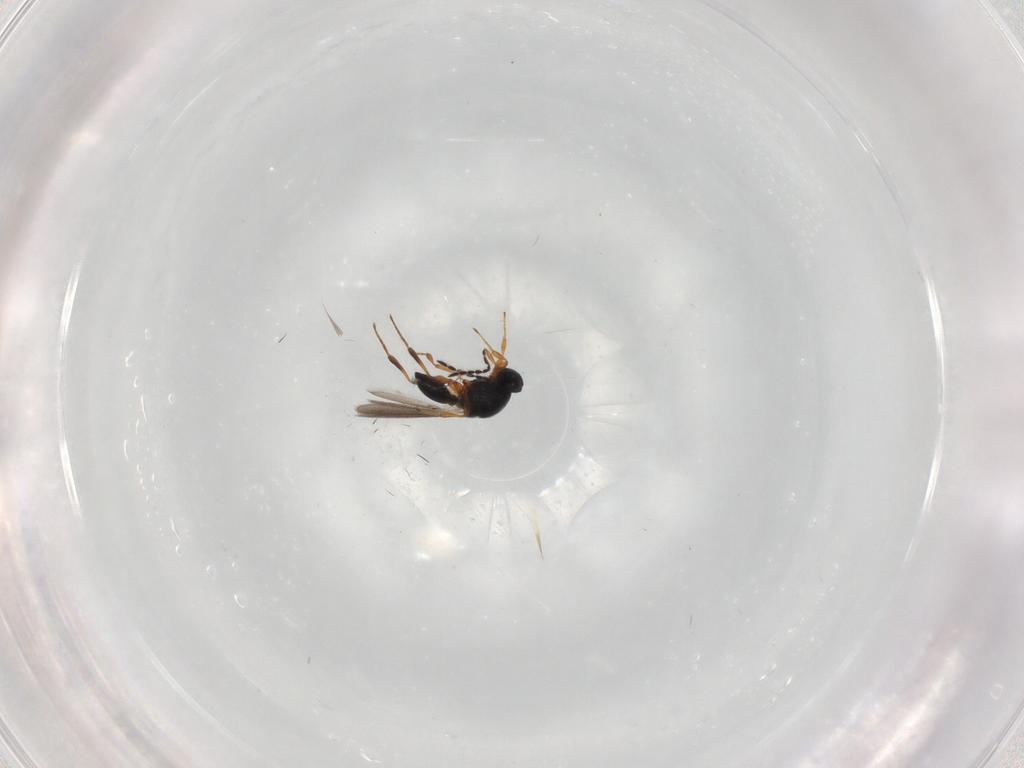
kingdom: Animalia
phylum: Arthropoda
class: Insecta
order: Hymenoptera
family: Platygastridae
